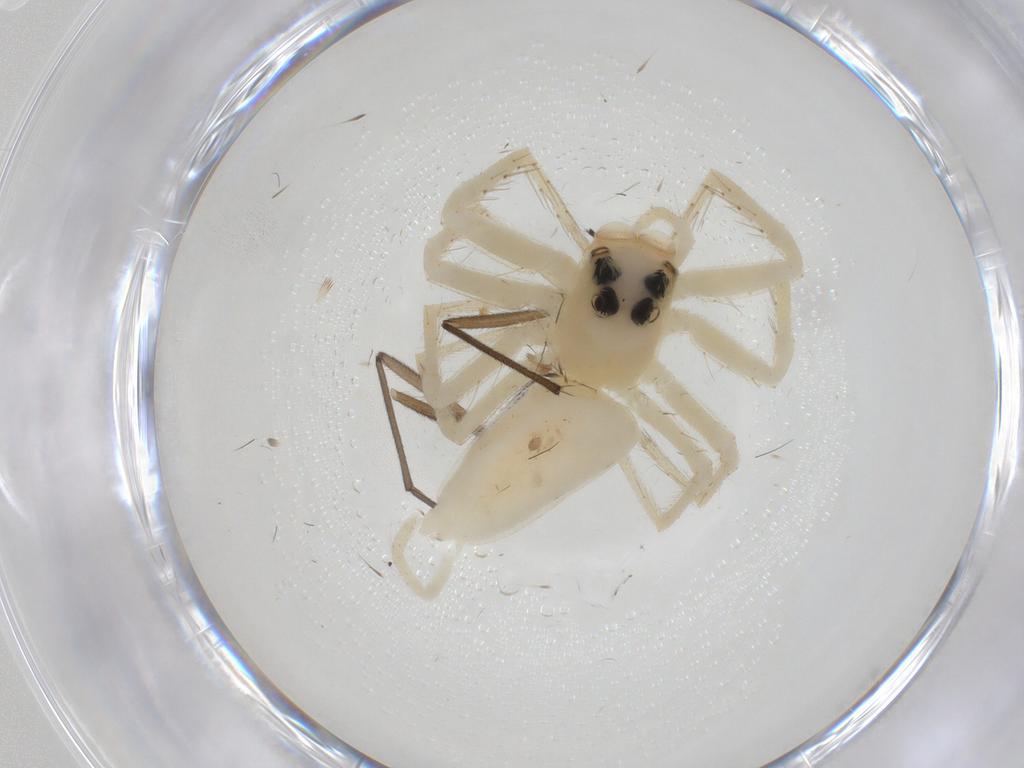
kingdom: Animalia
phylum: Arthropoda
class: Arachnida
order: Araneae
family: Salticidae
